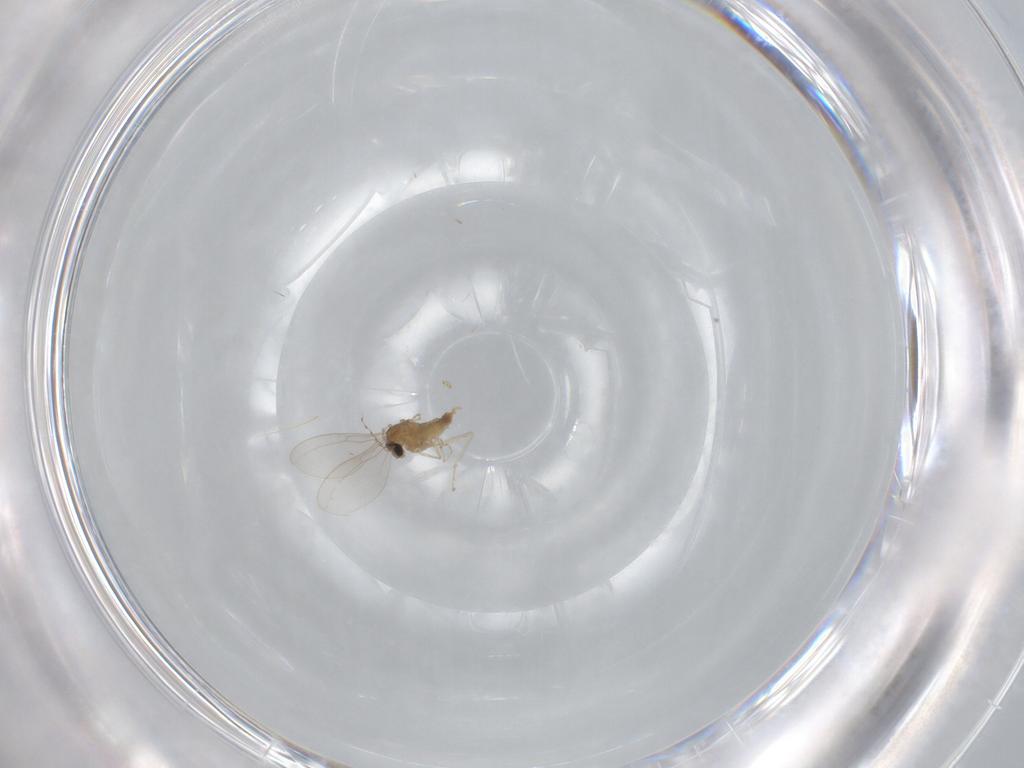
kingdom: Animalia
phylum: Arthropoda
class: Insecta
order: Diptera
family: Cecidomyiidae
